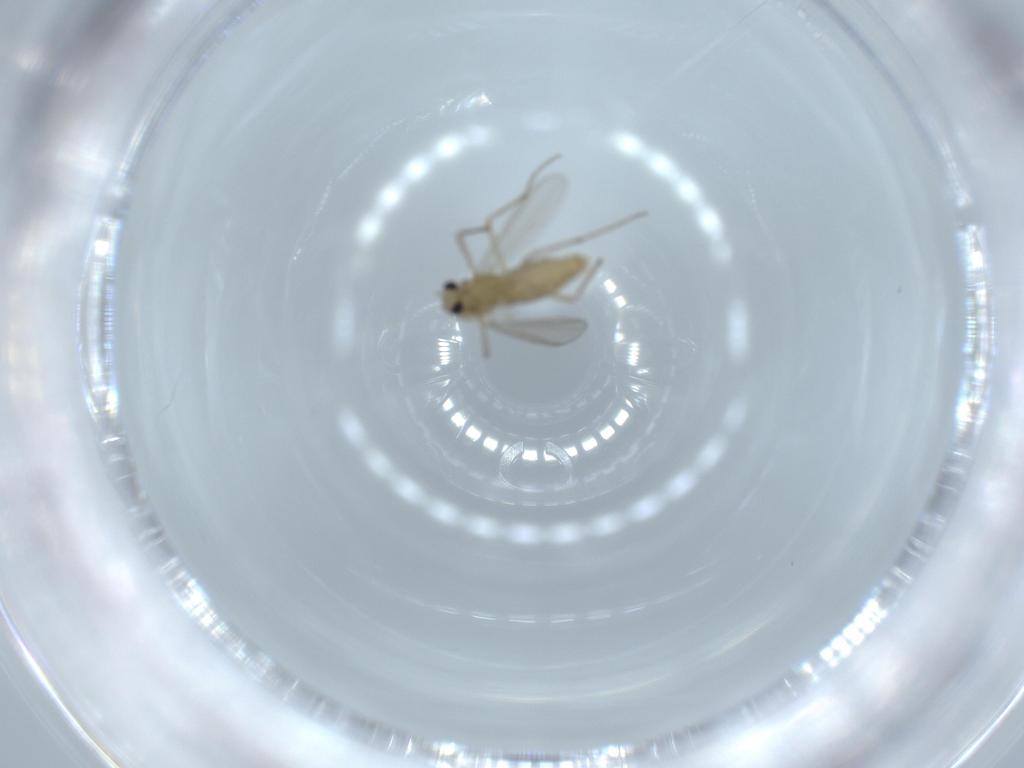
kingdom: Animalia
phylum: Arthropoda
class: Insecta
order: Diptera
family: Chironomidae
